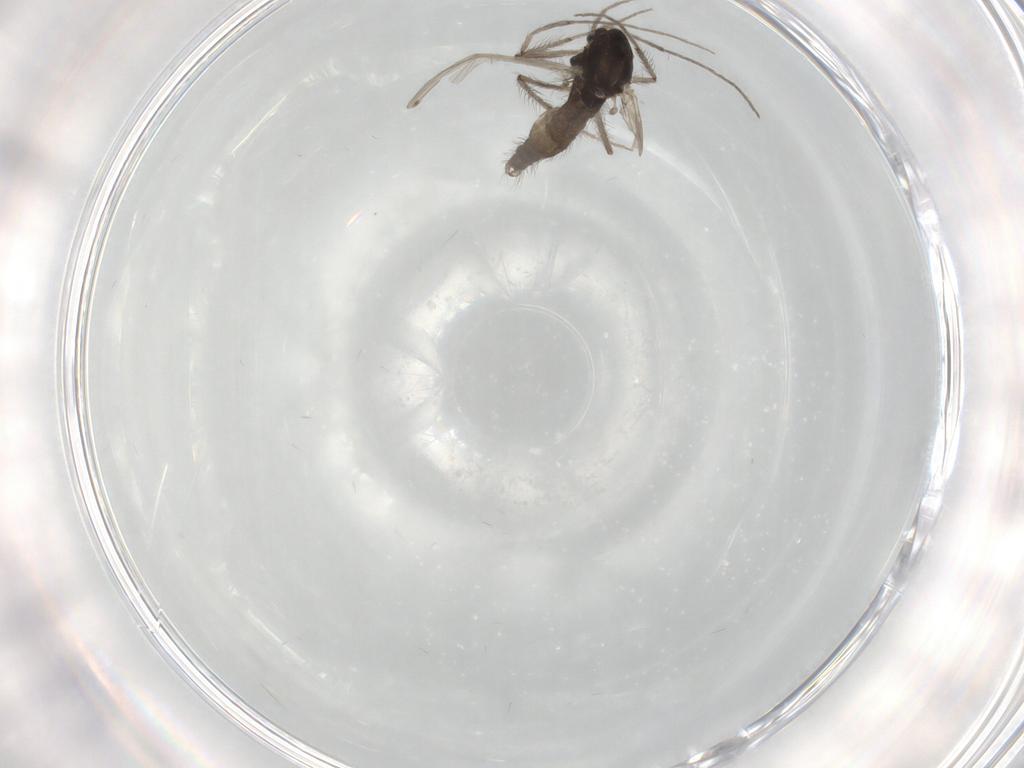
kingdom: Animalia
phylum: Arthropoda
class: Insecta
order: Diptera
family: Chironomidae
